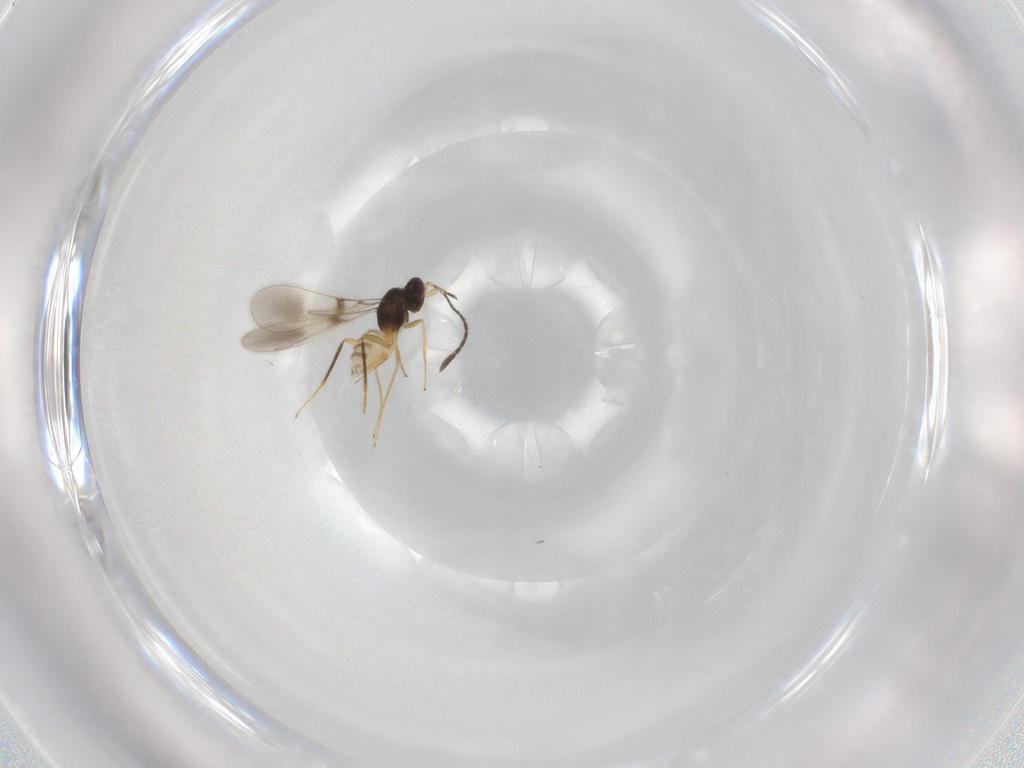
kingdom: Animalia
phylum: Arthropoda
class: Insecta
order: Hymenoptera
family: Mymaridae
